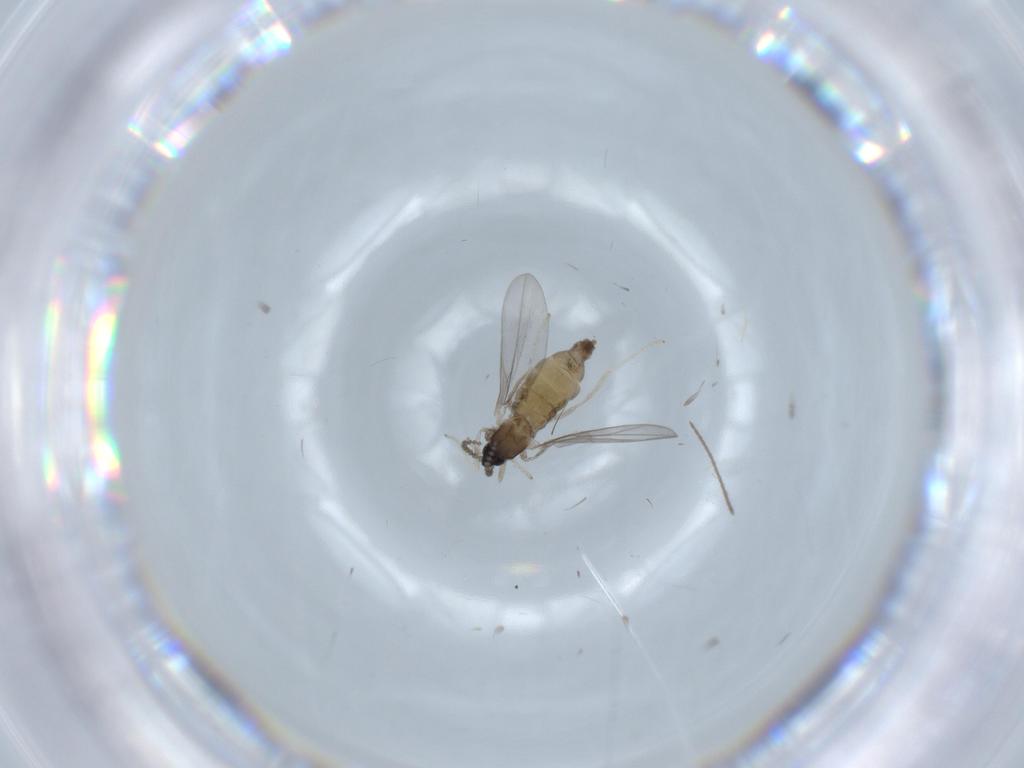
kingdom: Animalia
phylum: Arthropoda
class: Insecta
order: Diptera
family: Cecidomyiidae
